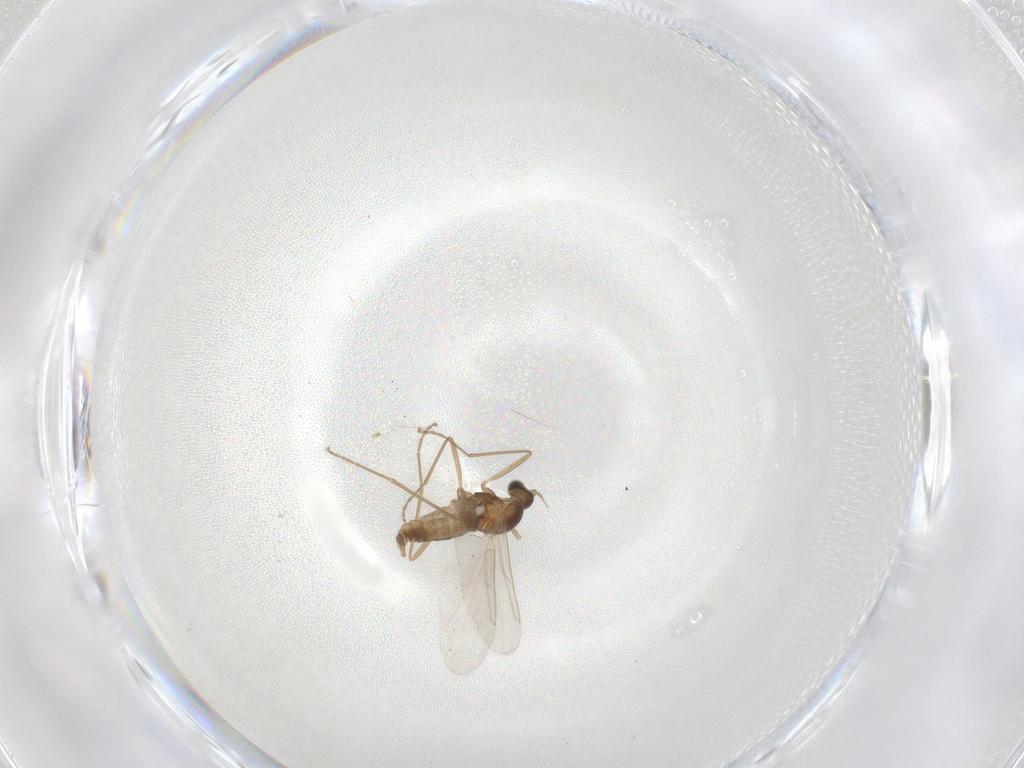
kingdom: Animalia
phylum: Arthropoda
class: Insecta
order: Diptera
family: Cecidomyiidae
